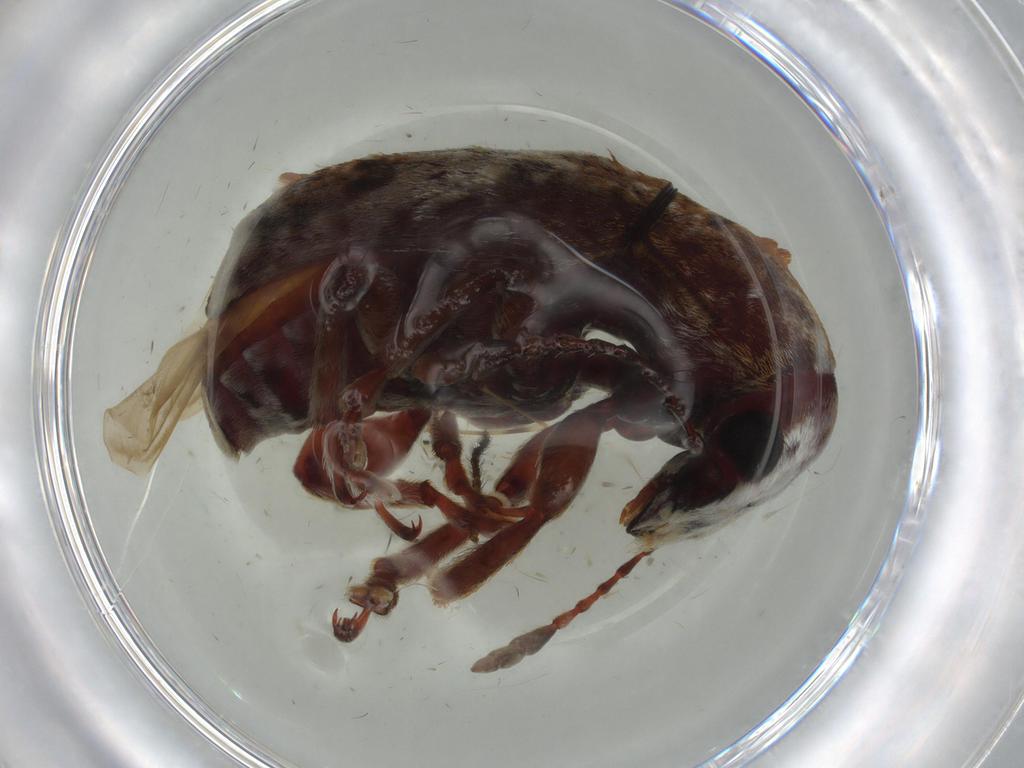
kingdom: Animalia
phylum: Arthropoda
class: Insecta
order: Coleoptera
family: Anthribidae
